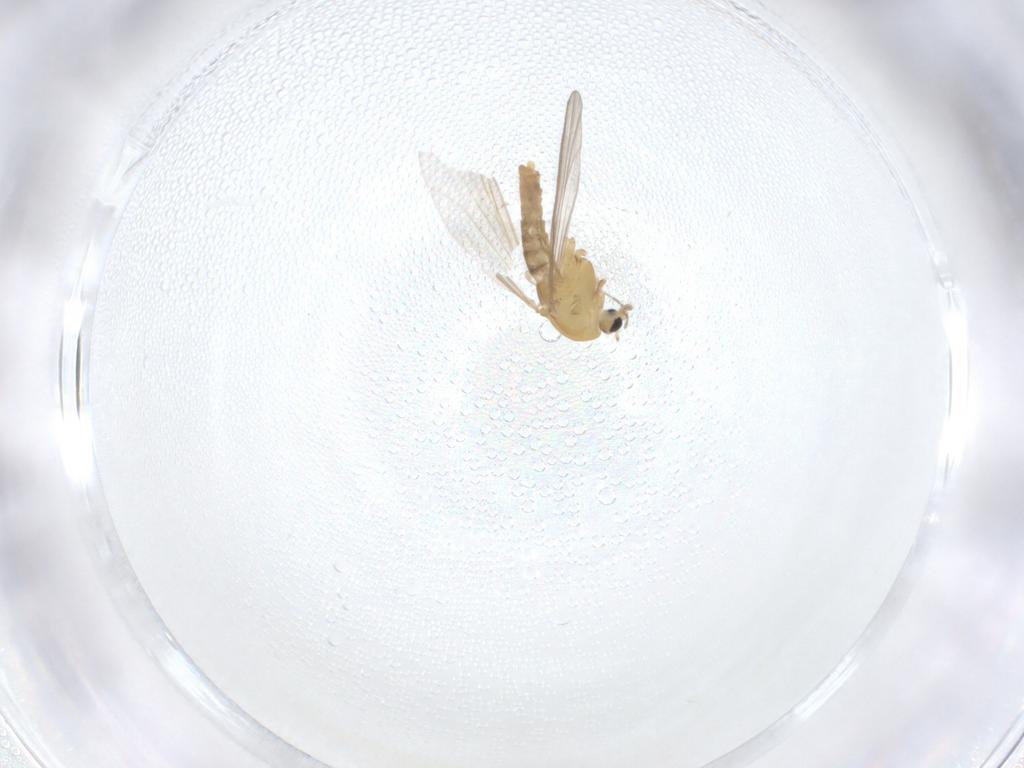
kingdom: Animalia
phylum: Arthropoda
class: Insecta
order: Diptera
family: Chironomidae
